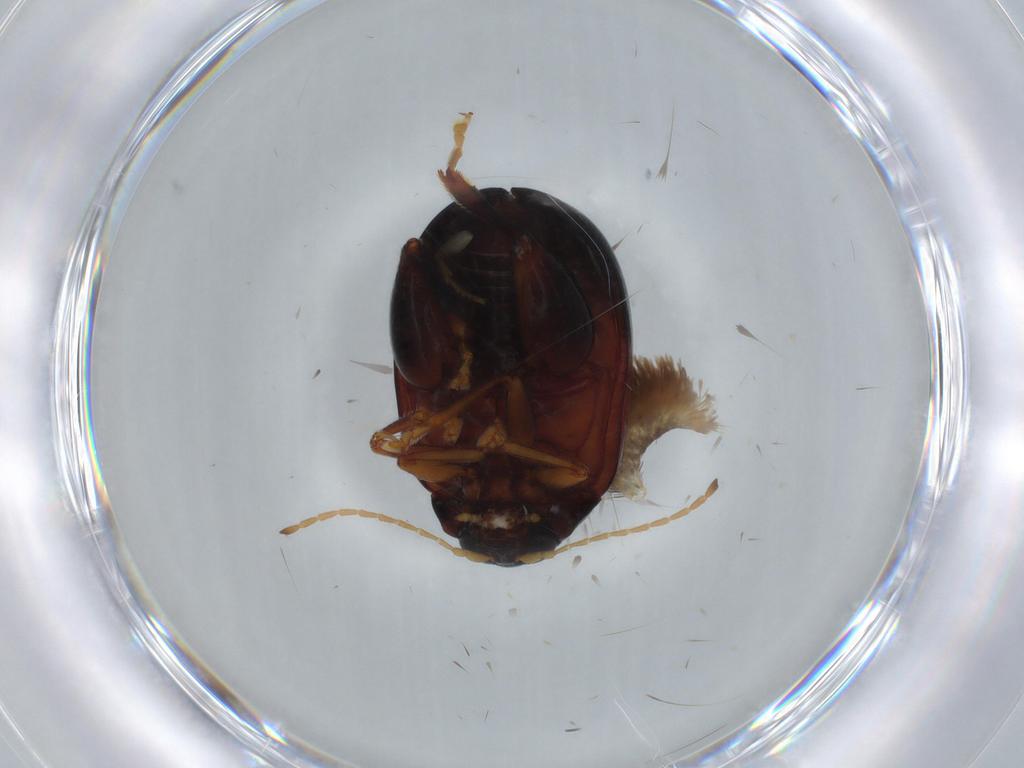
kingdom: Animalia
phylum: Arthropoda
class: Insecta
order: Coleoptera
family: Chrysomelidae
